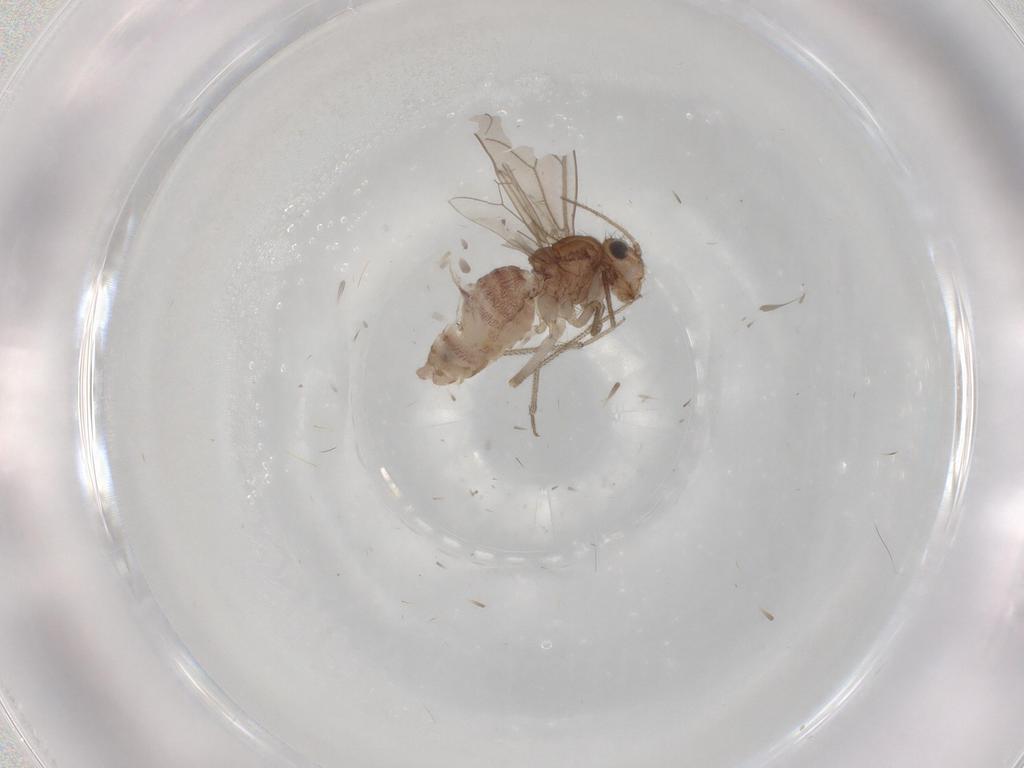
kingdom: Animalia
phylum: Arthropoda
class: Insecta
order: Psocodea
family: Caeciliusidae
